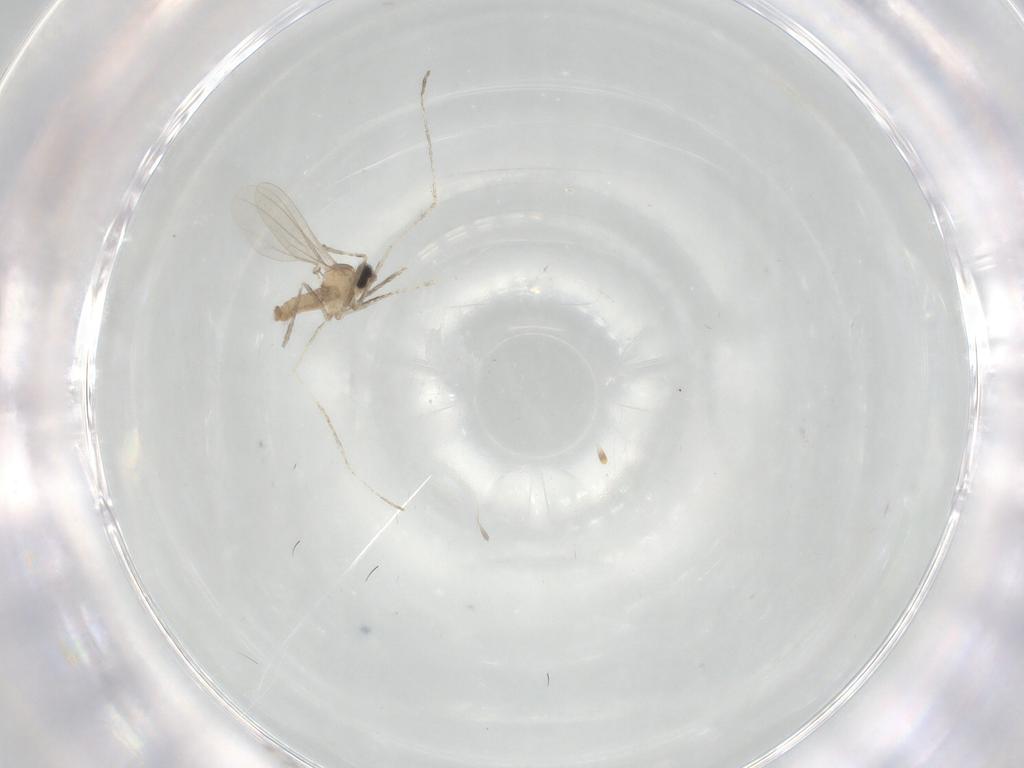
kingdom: Animalia
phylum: Arthropoda
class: Insecta
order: Diptera
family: Cecidomyiidae
